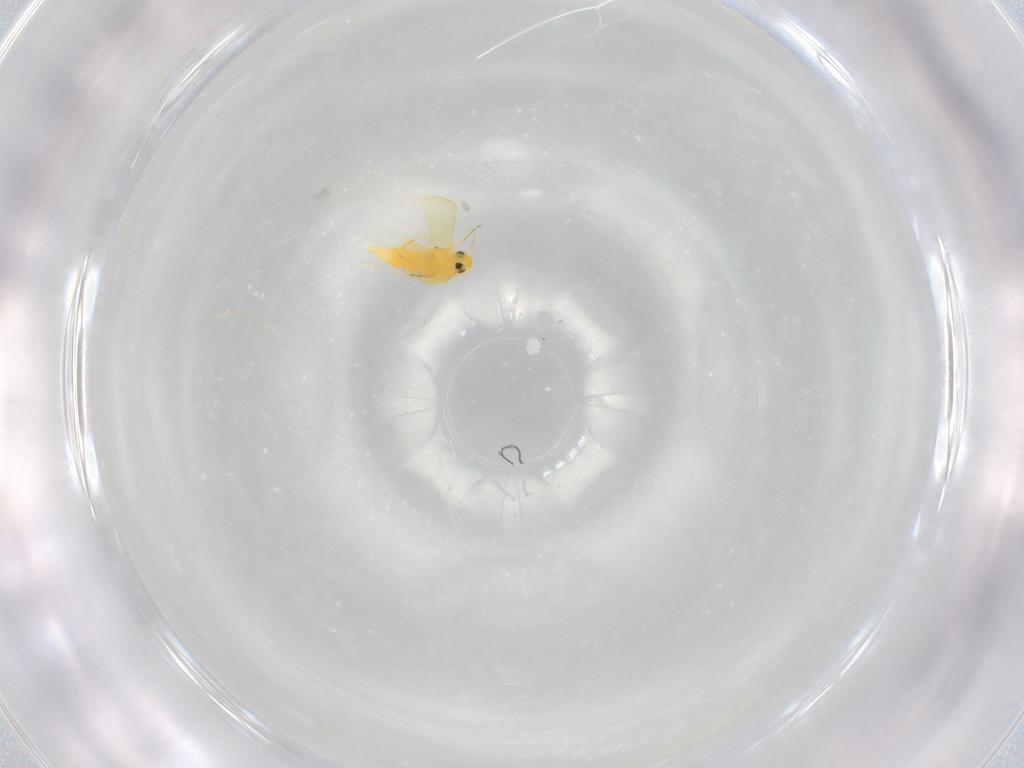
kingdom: Animalia
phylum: Arthropoda
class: Insecta
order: Hemiptera
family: Aleyrodidae
